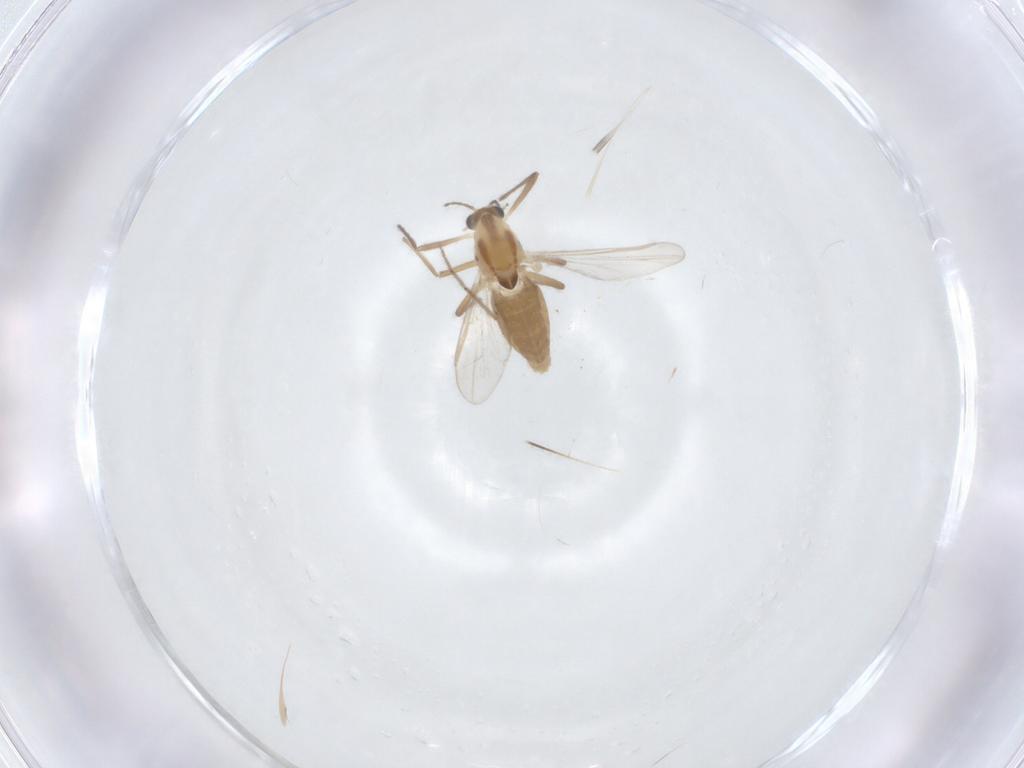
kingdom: Animalia
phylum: Arthropoda
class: Insecta
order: Diptera
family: Chironomidae
